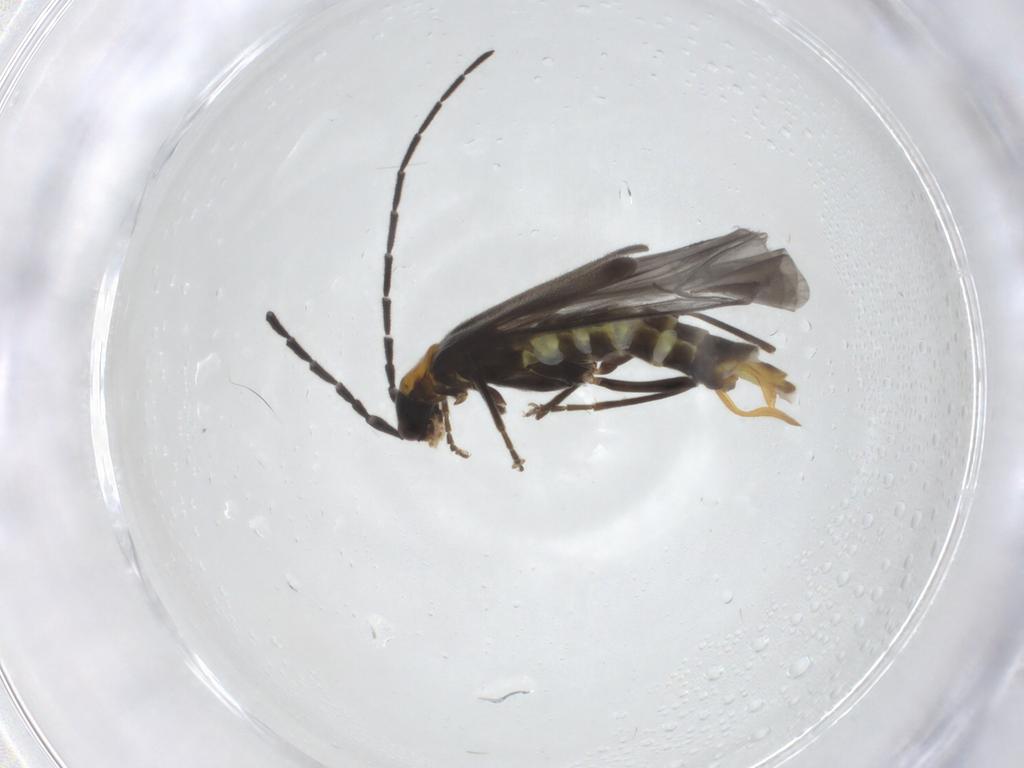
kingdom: Animalia
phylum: Arthropoda
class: Insecta
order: Coleoptera
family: Cantharidae
